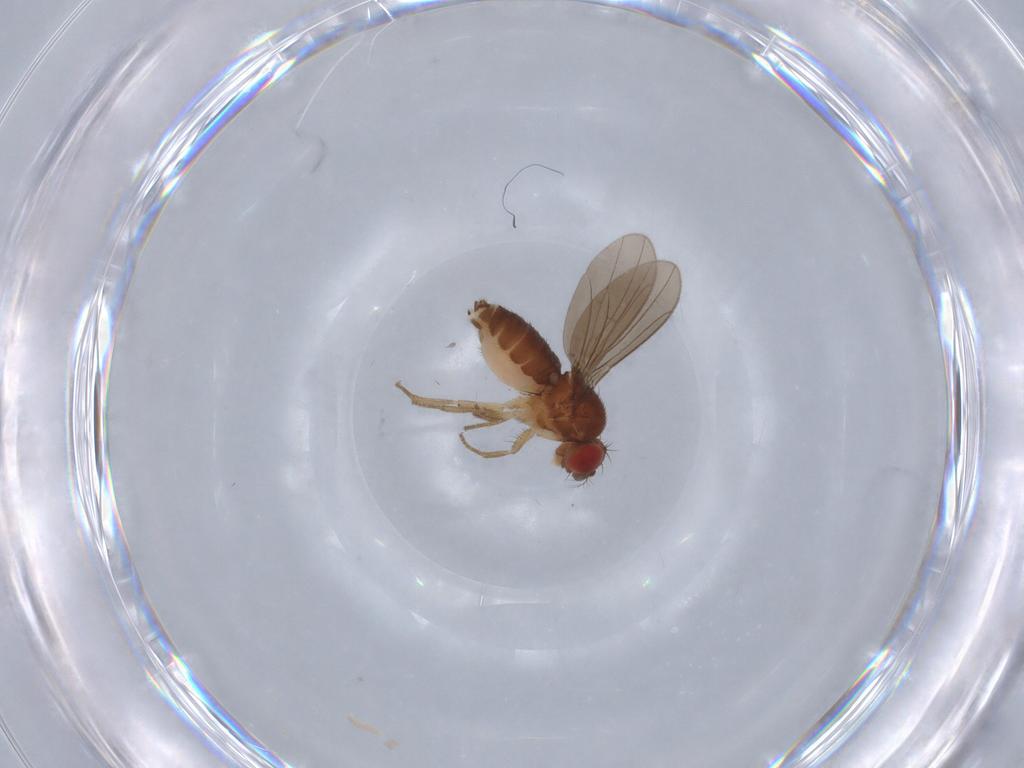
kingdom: Animalia
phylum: Arthropoda
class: Insecta
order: Diptera
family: Drosophilidae
